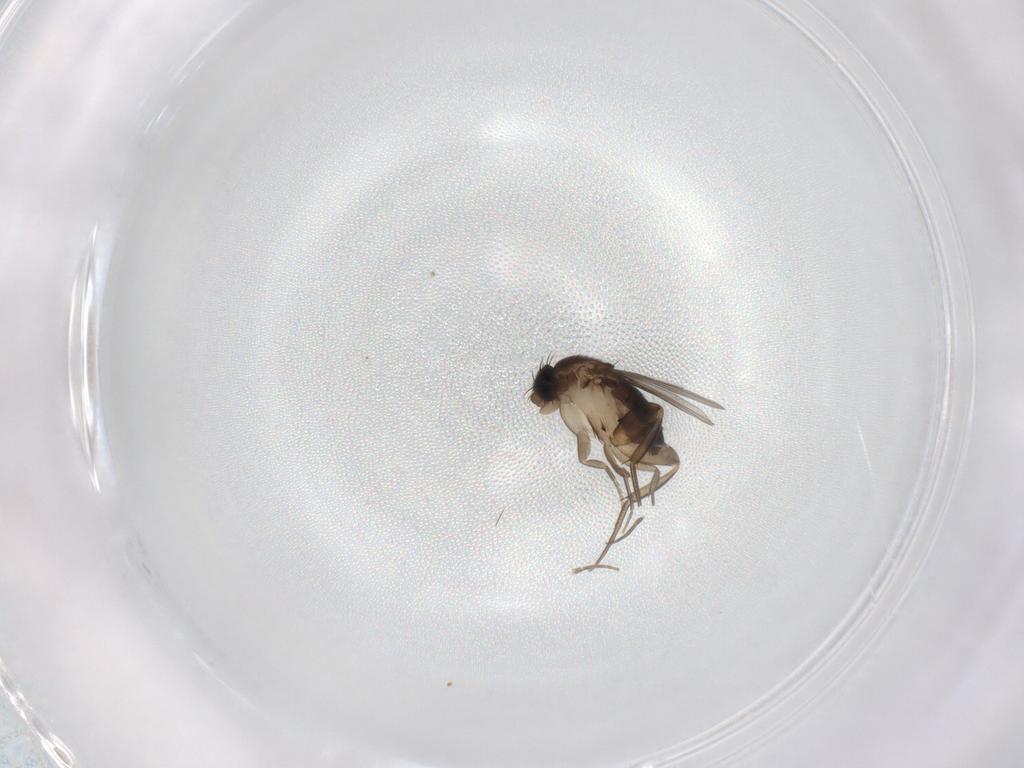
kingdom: Animalia
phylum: Arthropoda
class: Insecta
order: Diptera
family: Phoridae
